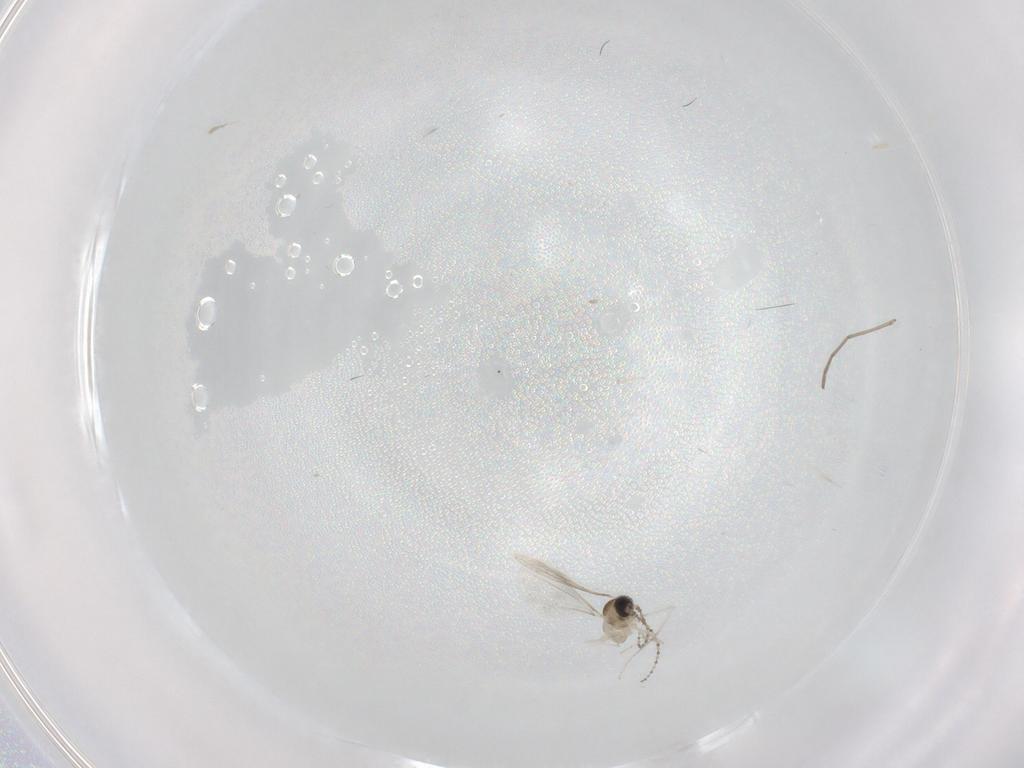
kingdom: Animalia
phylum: Arthropoda
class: Insecta
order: Diptera
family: Cecidomyiidae
